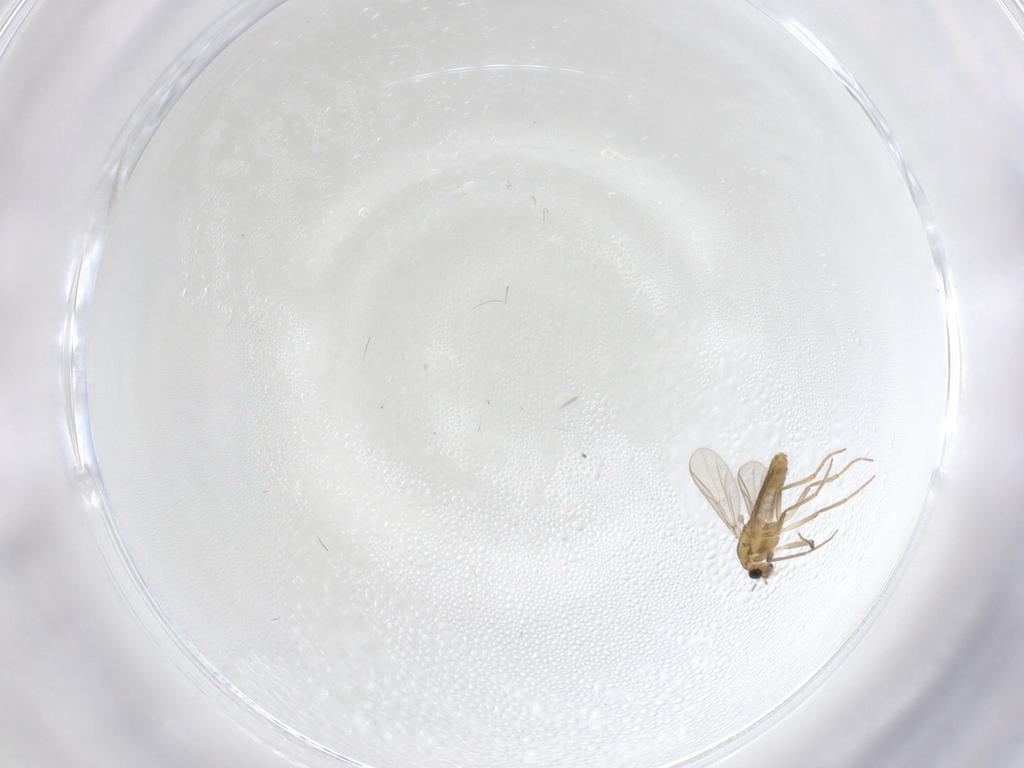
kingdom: Animalia
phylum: Arthropoda
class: Insecta
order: Diptera
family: Chironomidae
